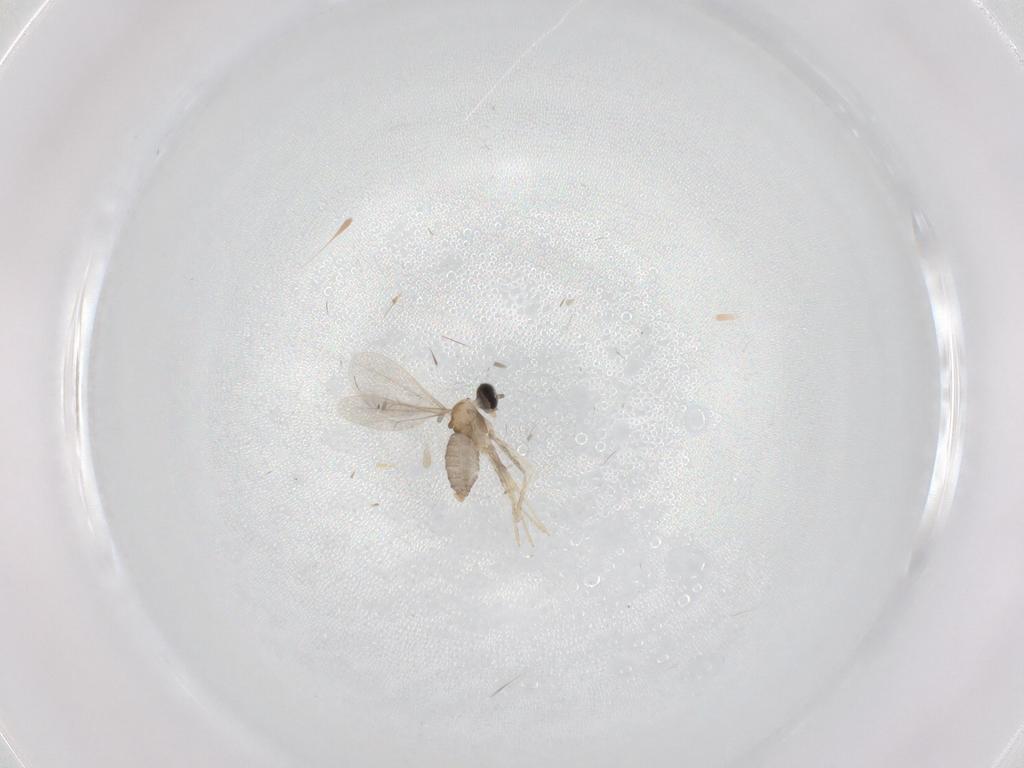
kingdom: Animalia
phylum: Arthropoda
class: Insecta
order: Diptera
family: Cecidomyiidae
